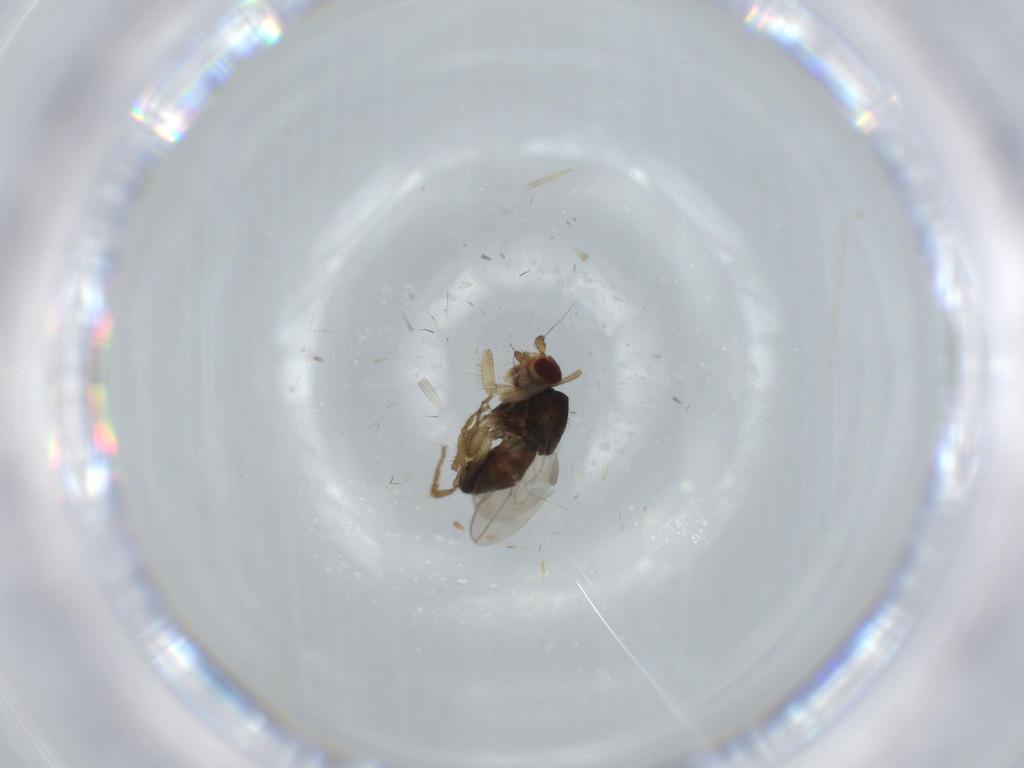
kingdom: Animalia
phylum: Arthropoda
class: Insecta
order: Diptera
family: Sphaeroceridae
